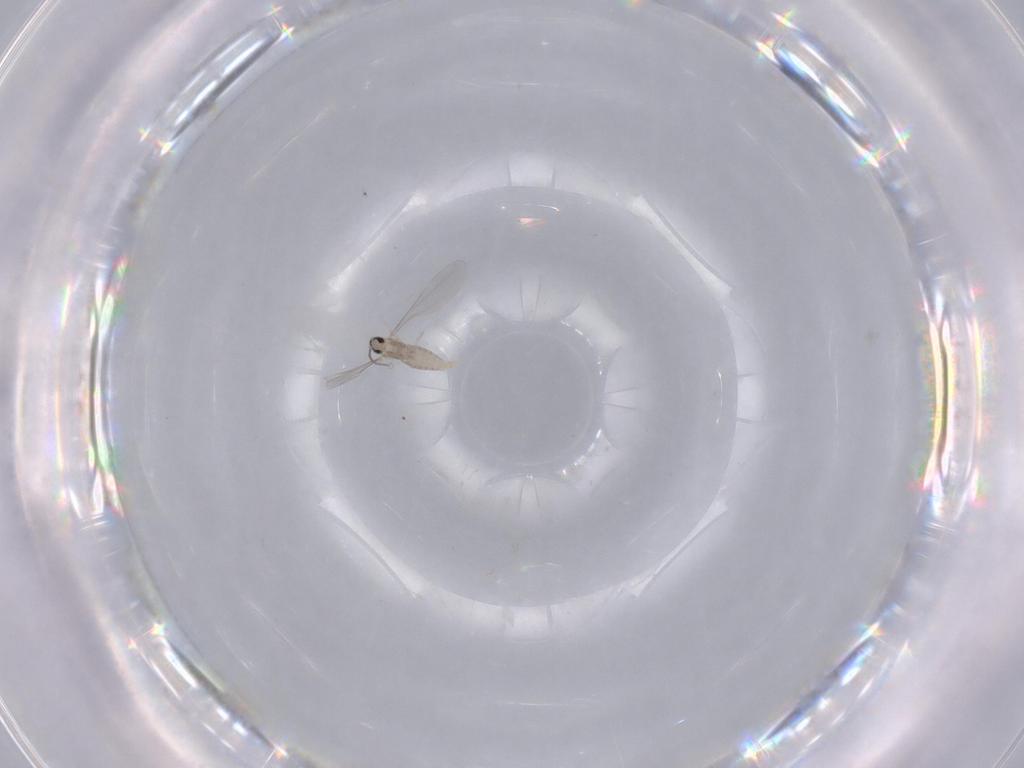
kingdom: Animalia
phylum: Arthropoda
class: Insecta
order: Diptera
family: Cecidomyiidae
